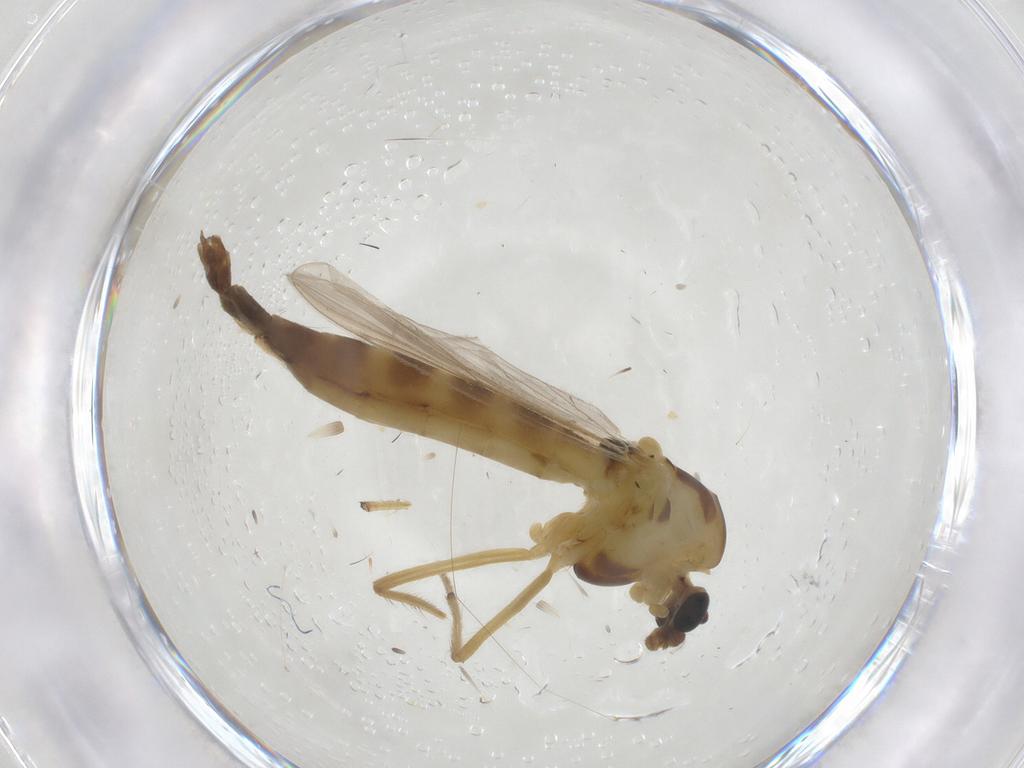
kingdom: Animalia
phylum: Arthropoda
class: Insecta
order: Diptera
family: Chironomidae
